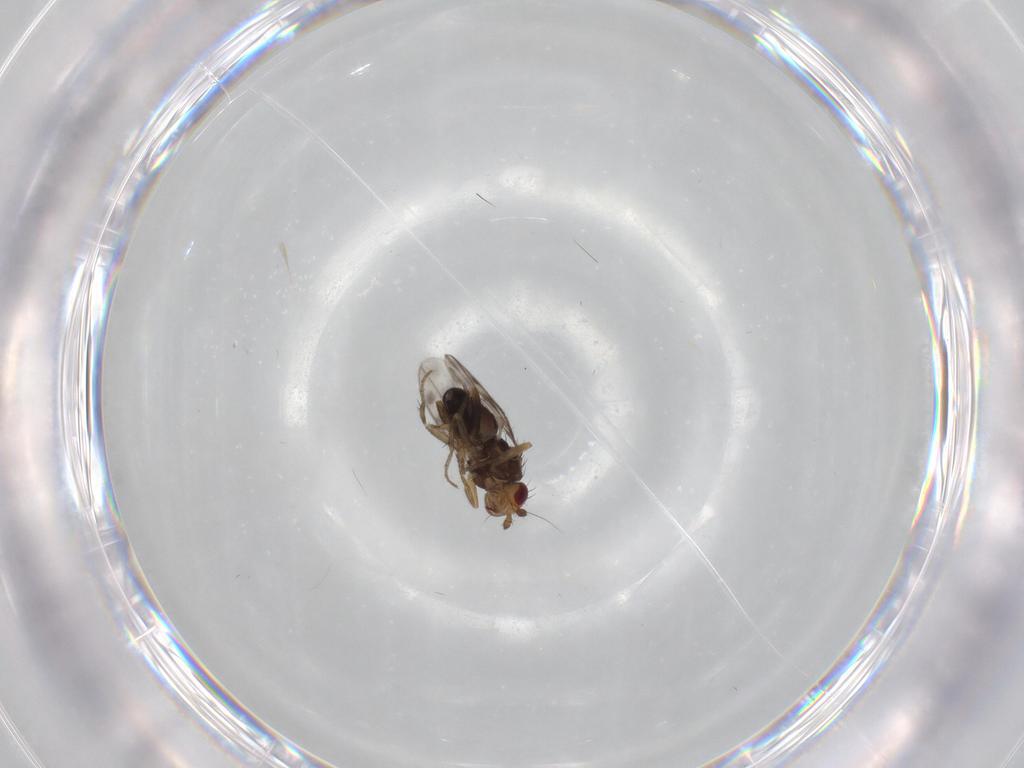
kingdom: Animalia
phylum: Arthropoda
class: Insecta
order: Diptera
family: Sphaeroceridae
